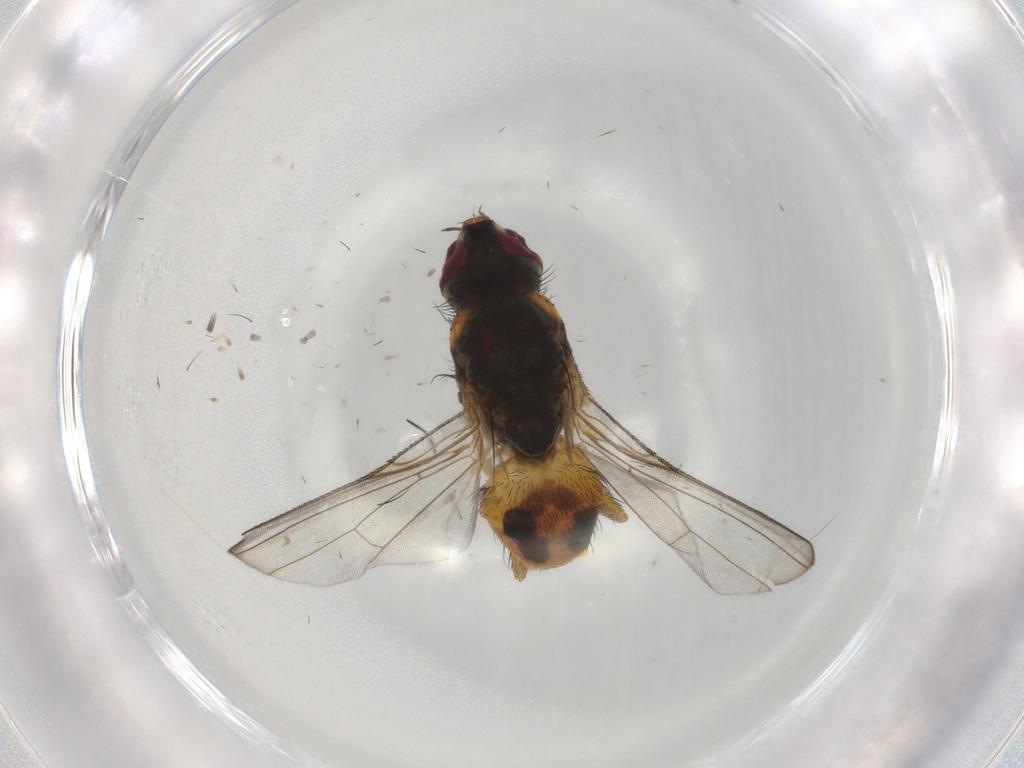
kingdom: Animalia
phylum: Arthropoda
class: Insecta
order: Diptera
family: Muscidae
